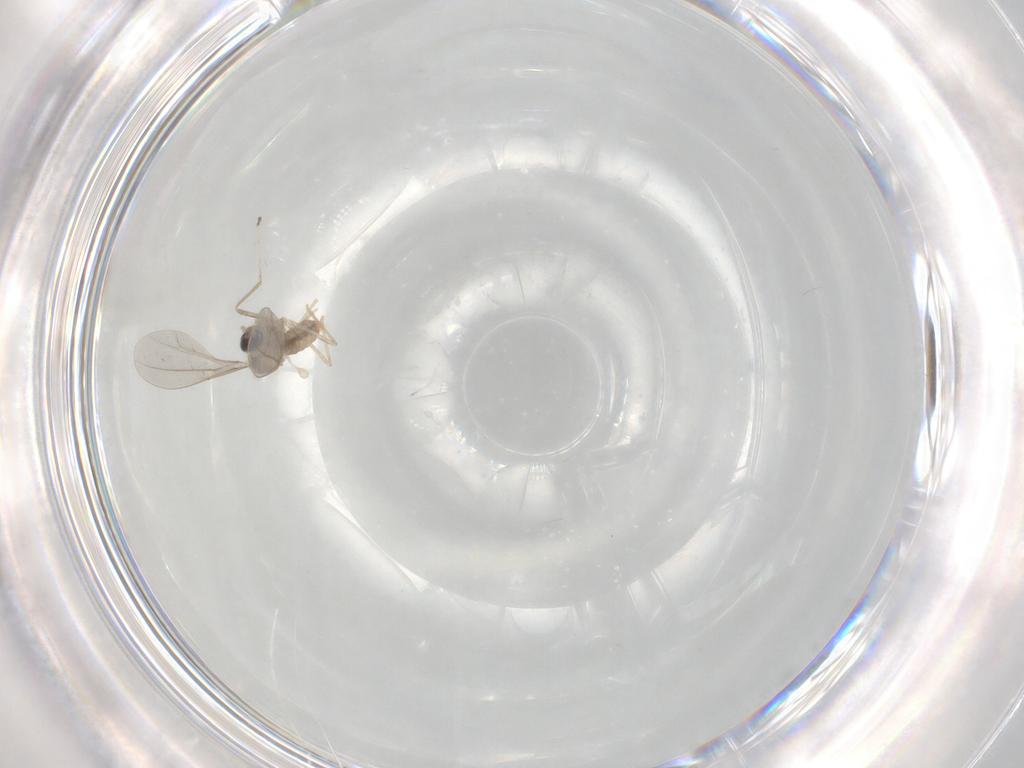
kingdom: Animalia
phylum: Arthropoda
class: Insecta
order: Diptera
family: Cecidomyiidae
